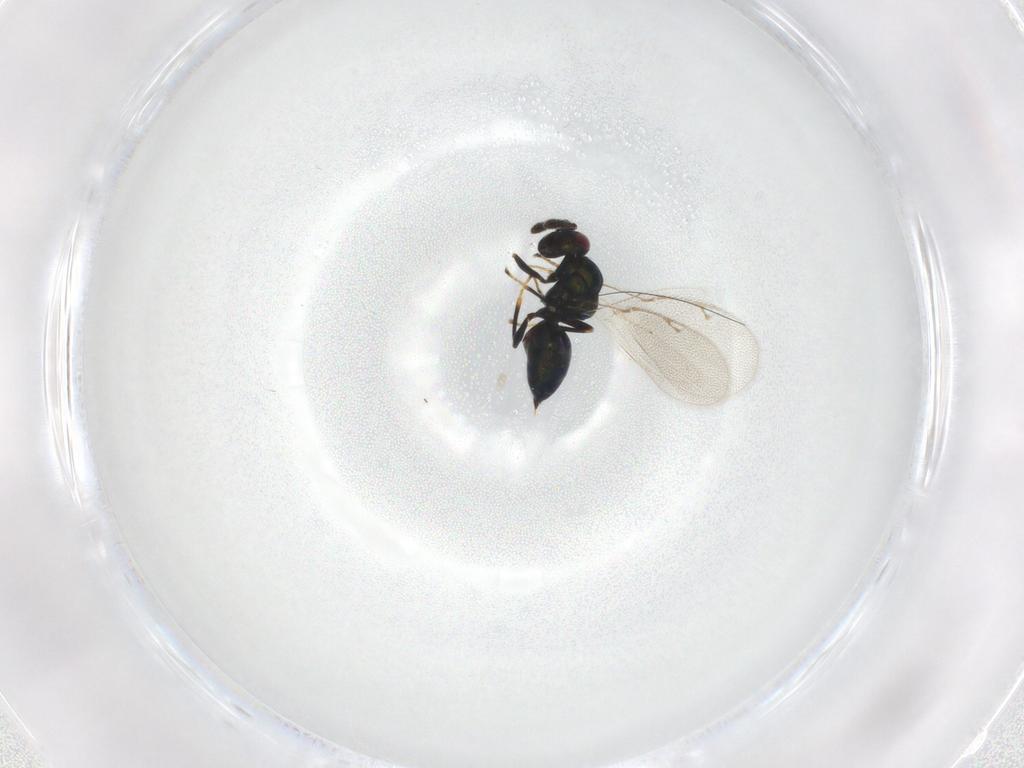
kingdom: Animalia
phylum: Arthropoda
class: Insecta
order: Hymenoptera
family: Pteromalidae
